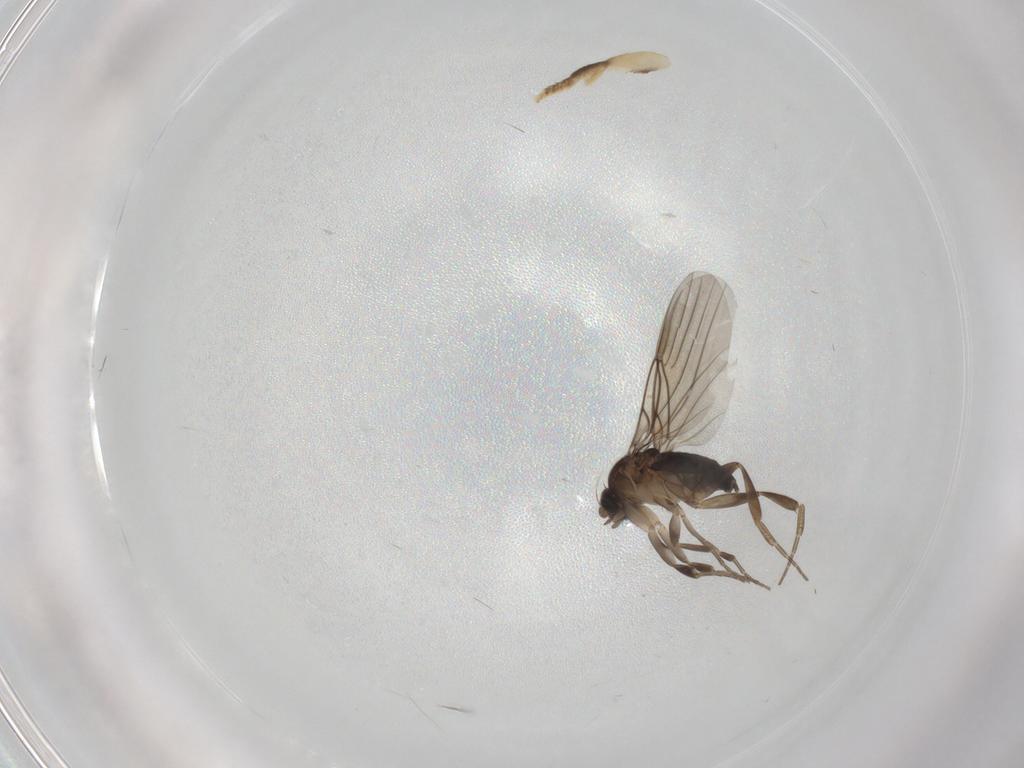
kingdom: Animalia
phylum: Arthropoda
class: Insecta
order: Diptera
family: Phoridae
